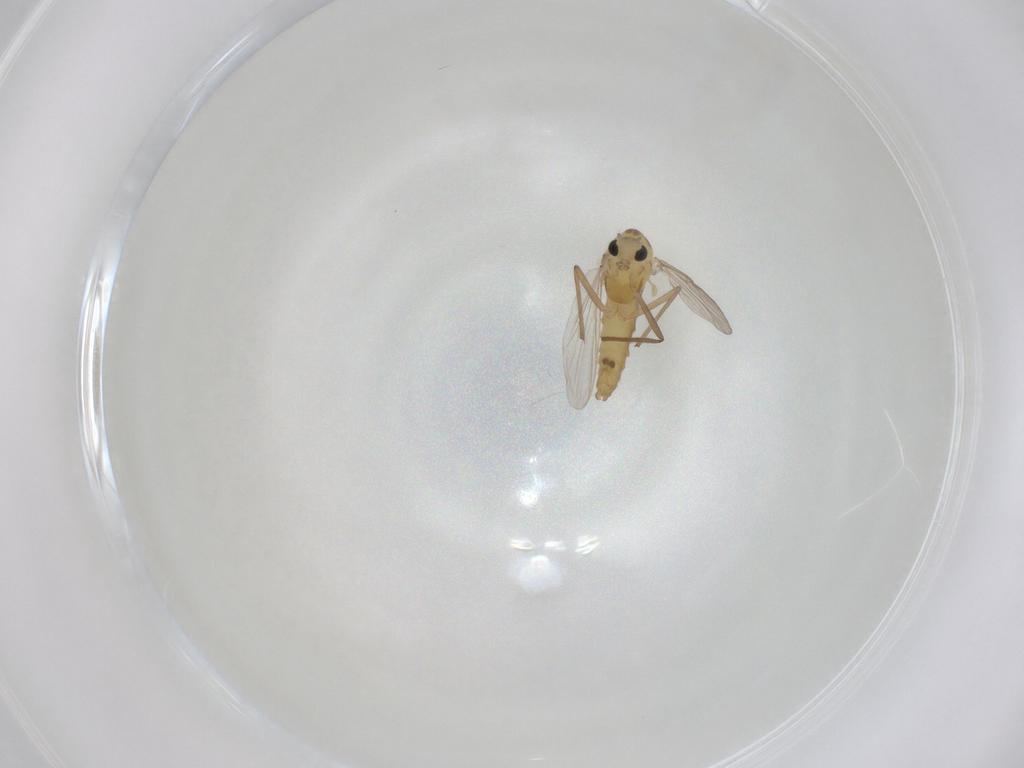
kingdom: Animalia
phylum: Arthropoda
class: Insecta
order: Diptera
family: Chironomidae
